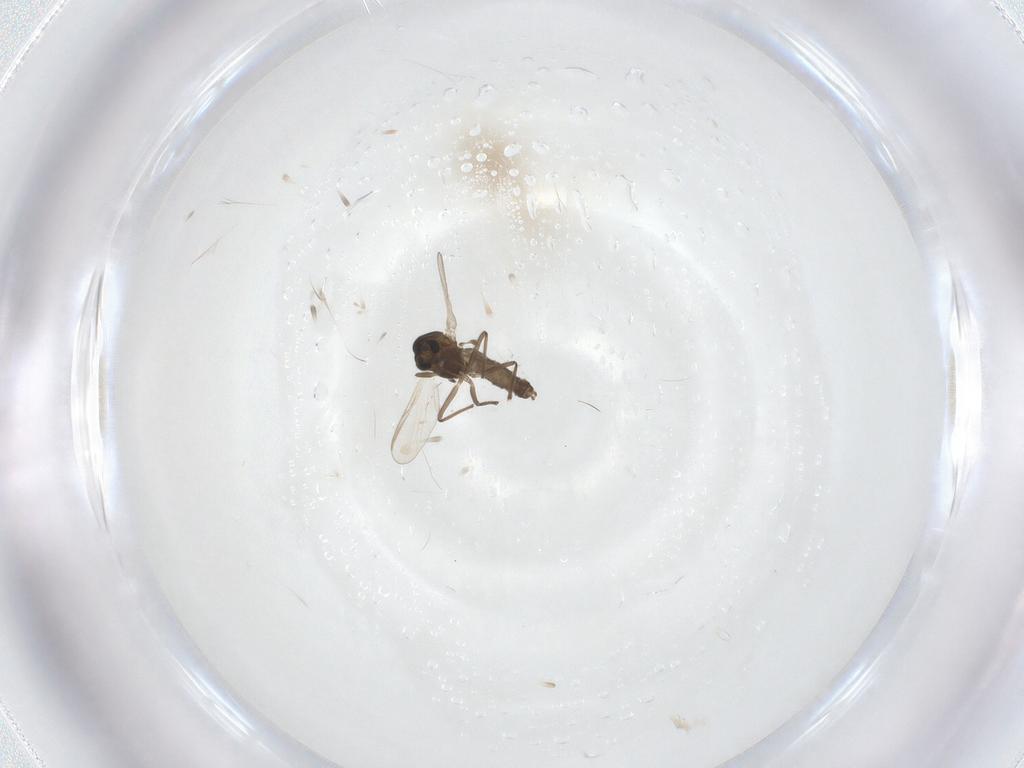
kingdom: Animalia
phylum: Arthropoda
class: Insecta
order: Diptera
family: Chironomidae
